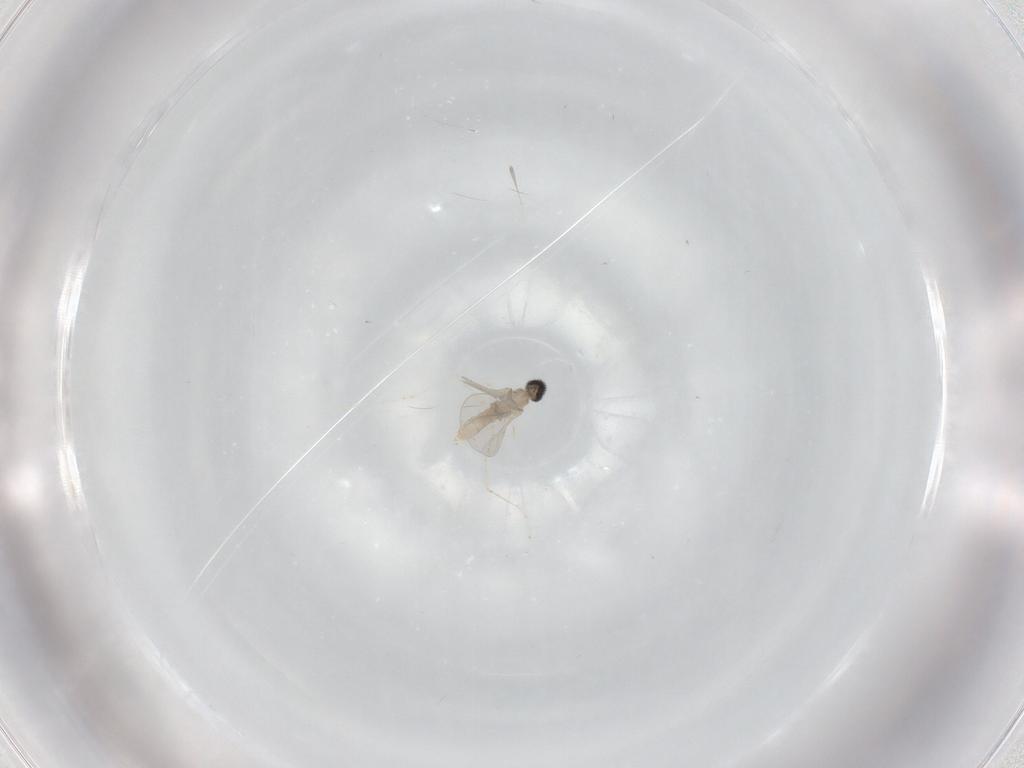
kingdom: Animalia
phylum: Arthropoda
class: Insecta
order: Diptera
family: Cecidomyiidae
